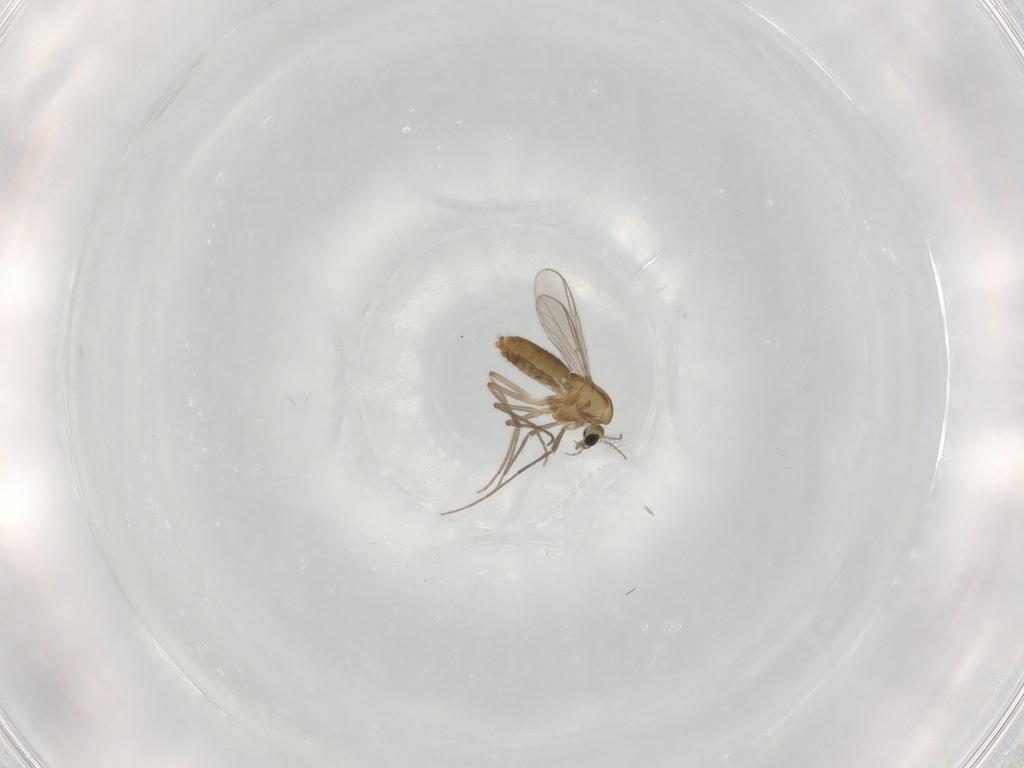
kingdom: Animalia
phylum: Arthropoda
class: Insecta
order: Diptera
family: Chironomidae
